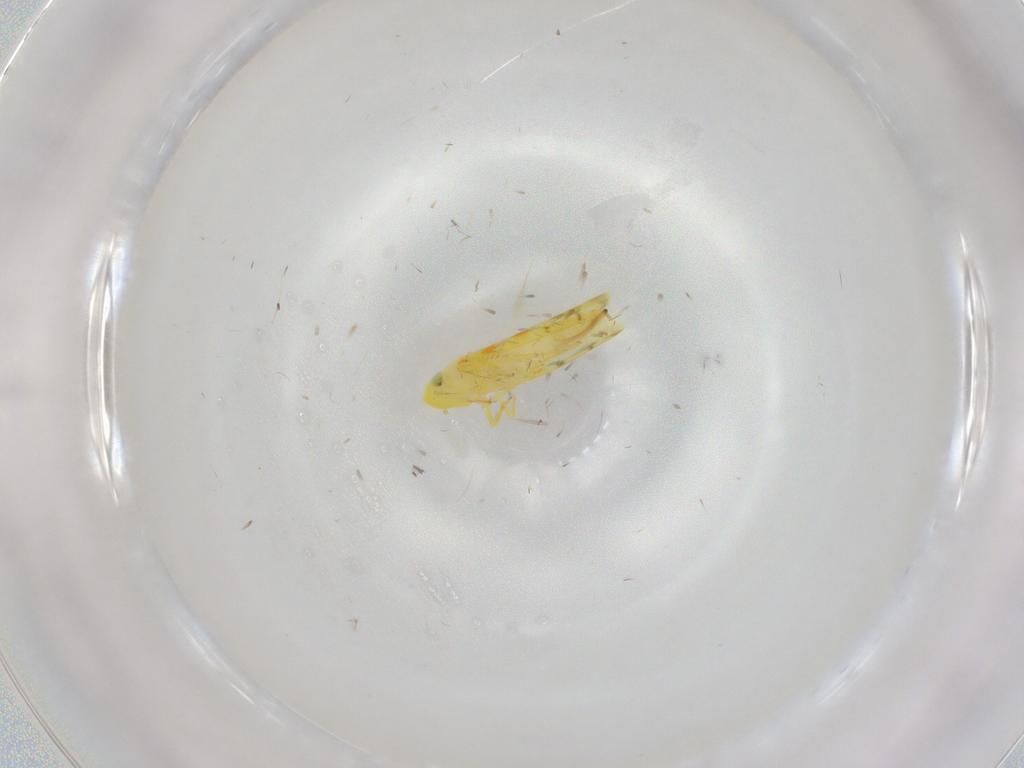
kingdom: Animalia
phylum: Arthropoda
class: Insecta
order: Hemiptera
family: Cicadellidae
